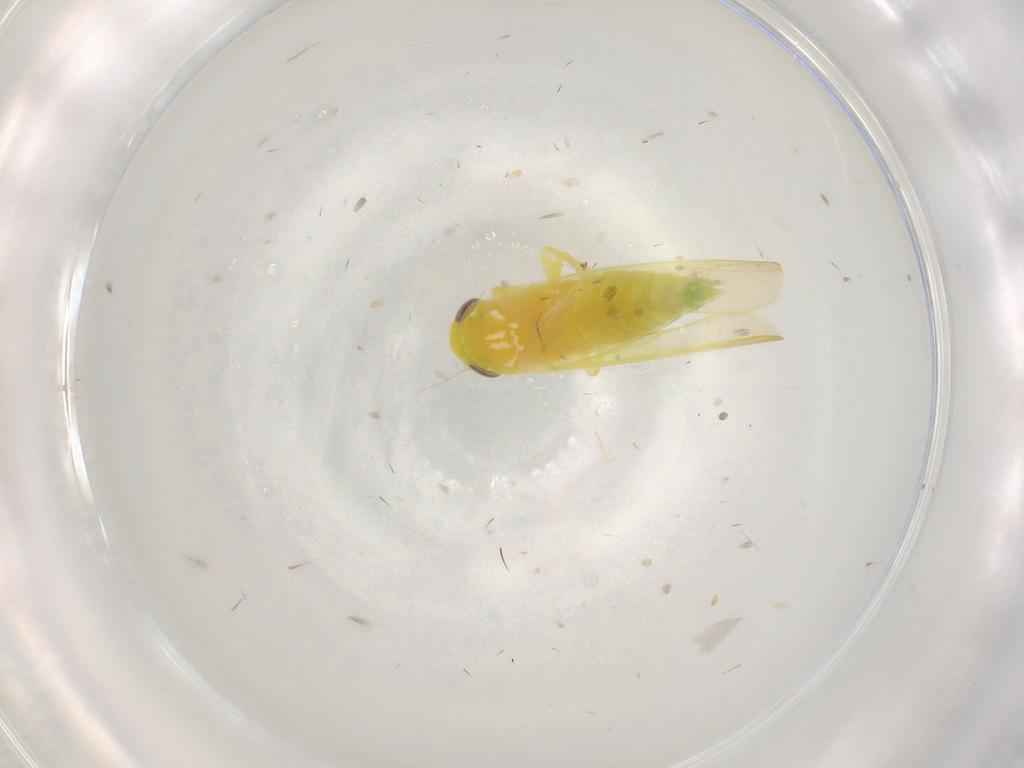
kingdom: Animalia
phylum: Arthropoda
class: Insecta
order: Hemiptera
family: Cicadellidae
